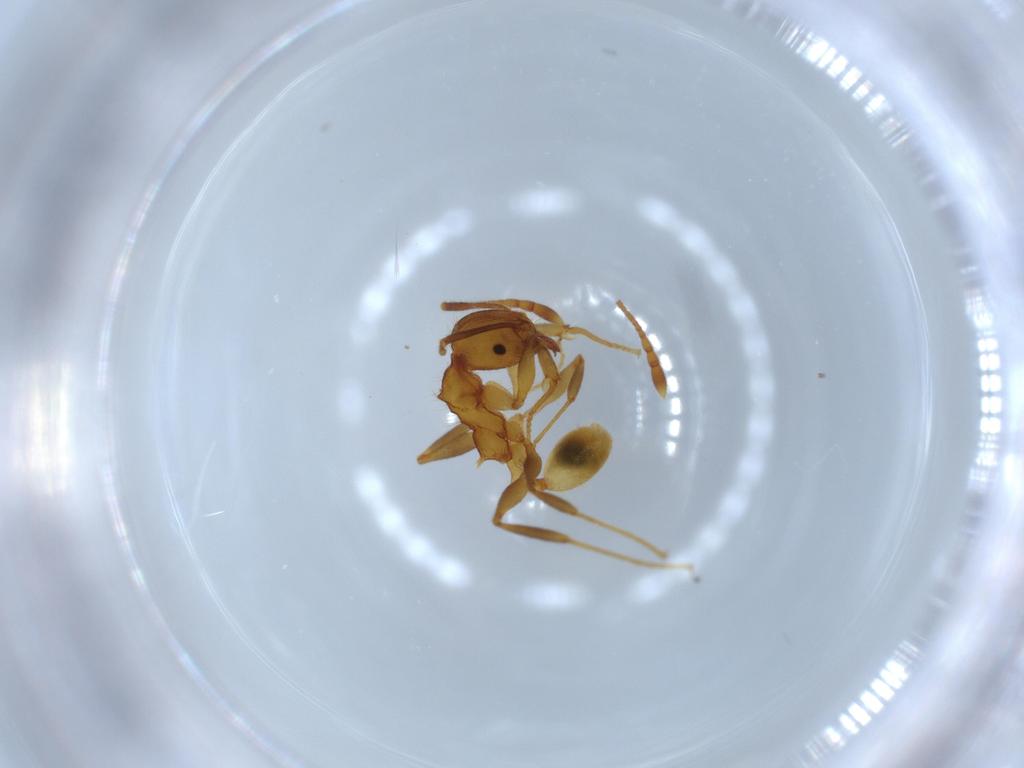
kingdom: Animalia
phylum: Arthropoda
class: Insecta
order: Hymenoptera
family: Formicidae
